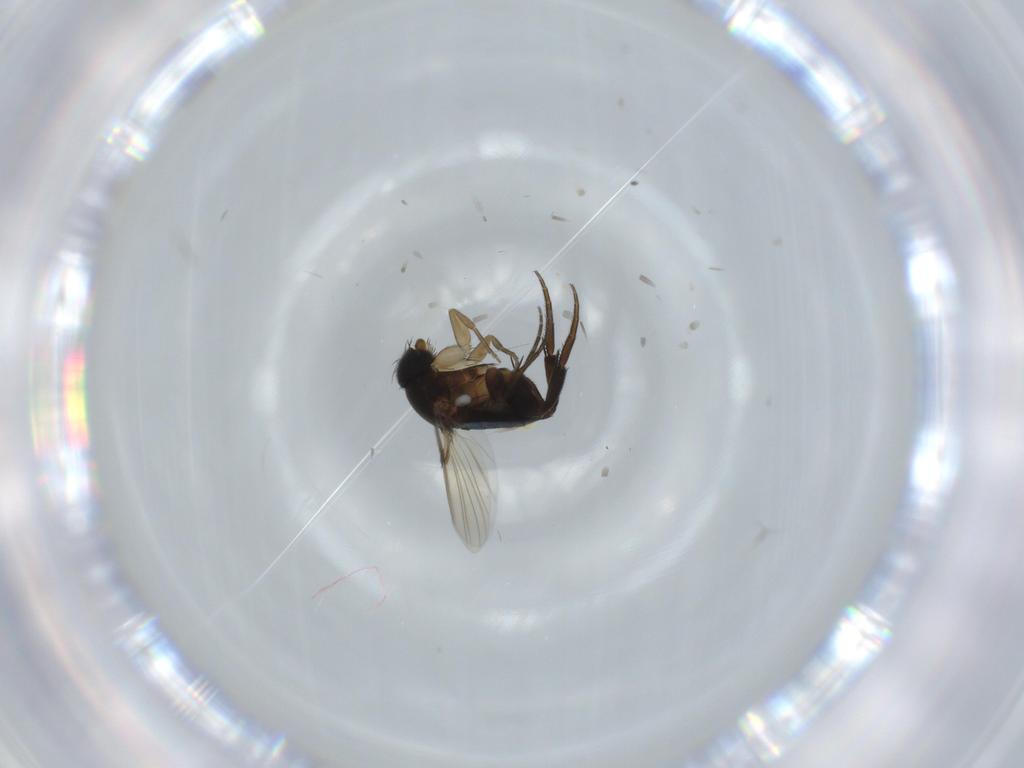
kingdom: Animalia
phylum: Arthropoda
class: Insecta
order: Diptera
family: Phoridae
